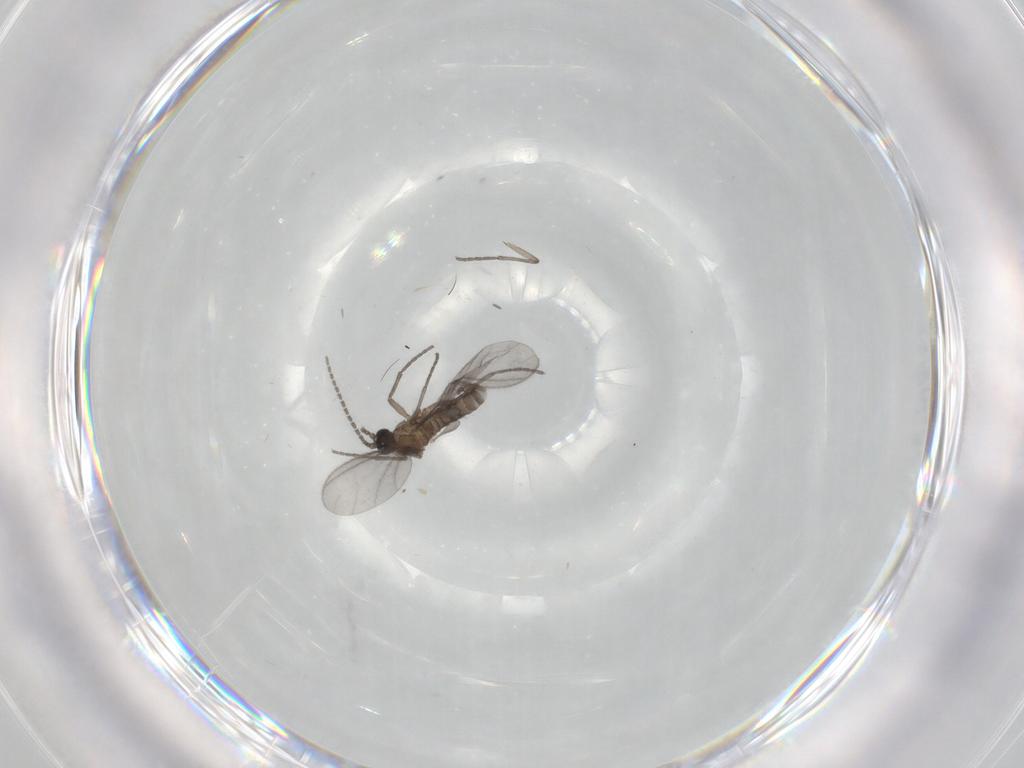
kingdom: Animalia
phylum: Arthropoda
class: Insecta
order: Diptera
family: Sciaridae
